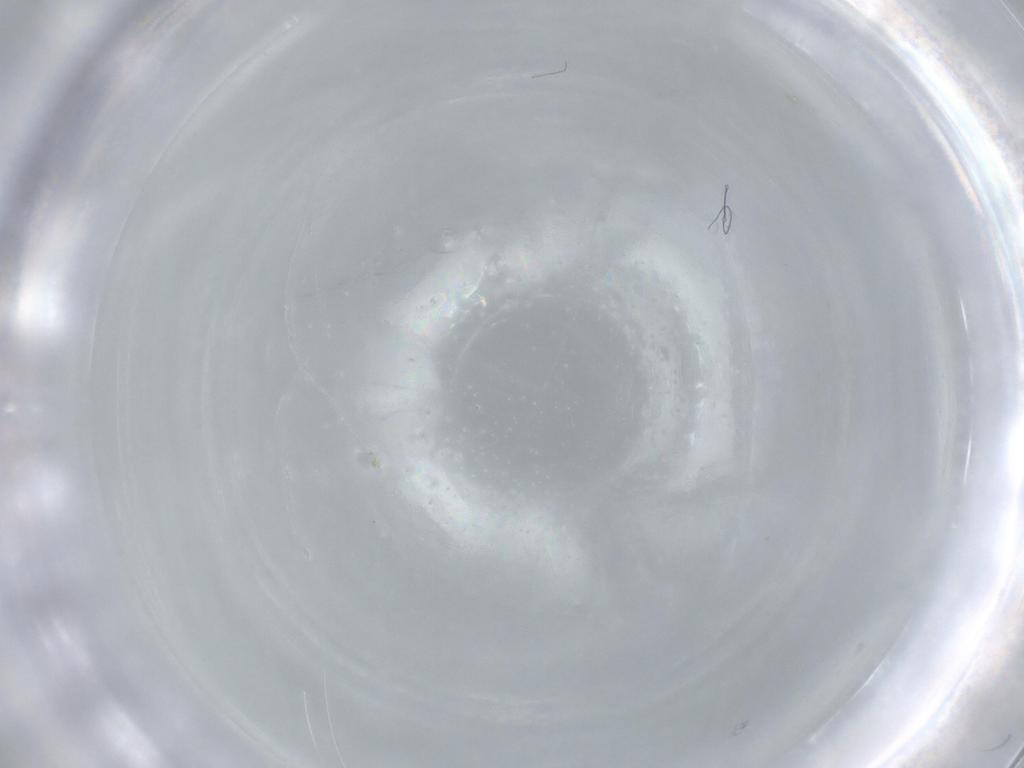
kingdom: Animalia
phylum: Arthropoda
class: Insecta
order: Hymenoptera
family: Mymaridae
